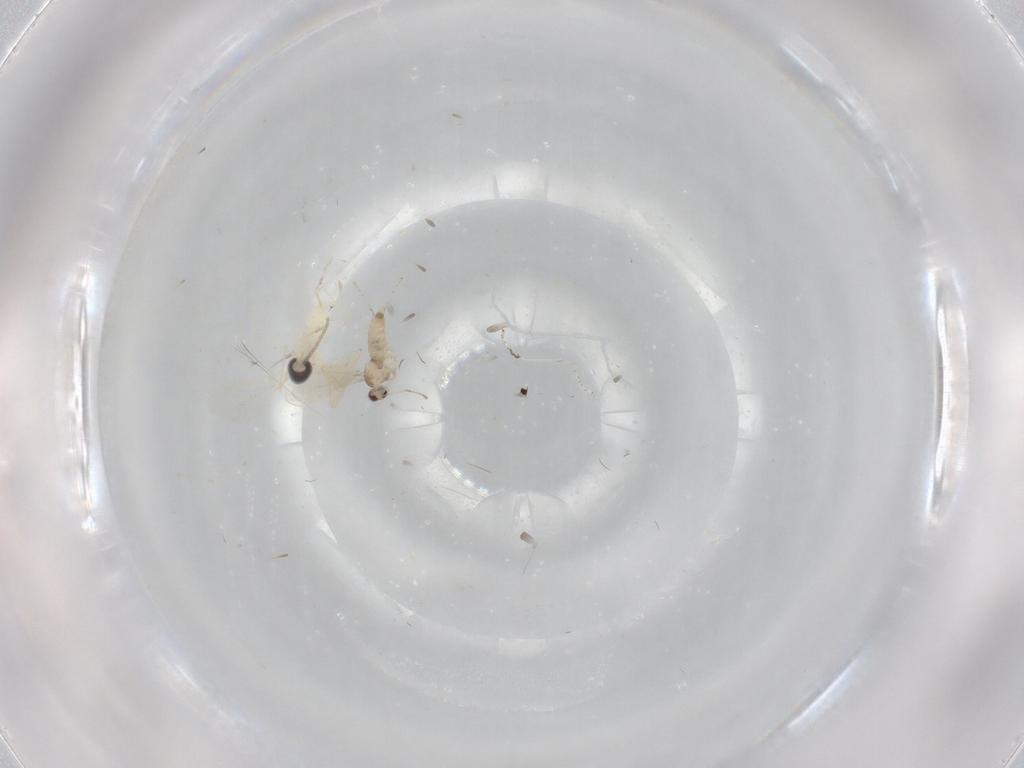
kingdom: Animalia
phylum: Arthropoda
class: Insecta
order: Diptera
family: Cecidomyiidae
